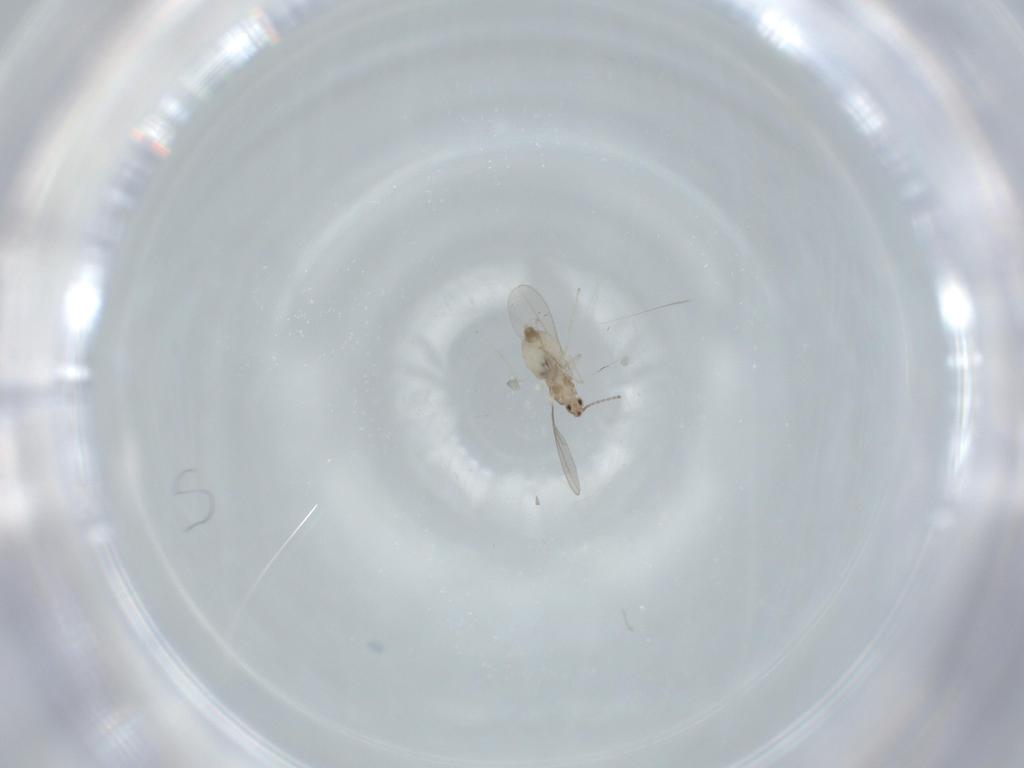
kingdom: Animalia
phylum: Arthropoda
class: Insecta
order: Diptera
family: Cecidomyiidae
